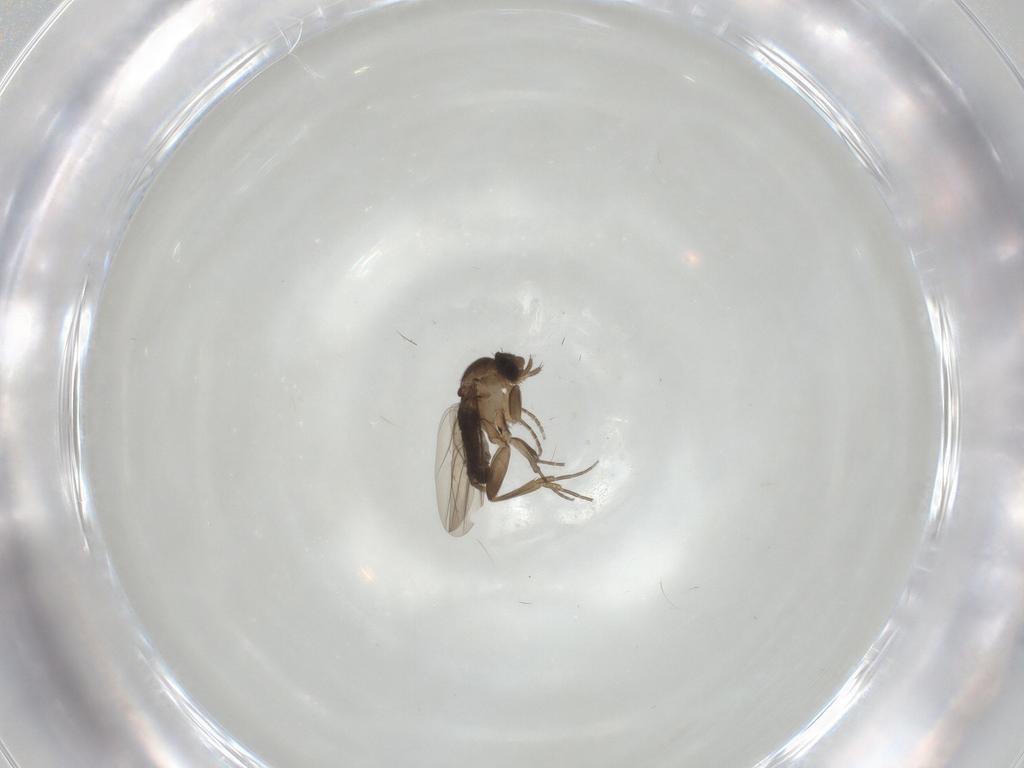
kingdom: Animalia
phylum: Arthropoda
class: Insecta
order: Diptera
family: Phoridae
